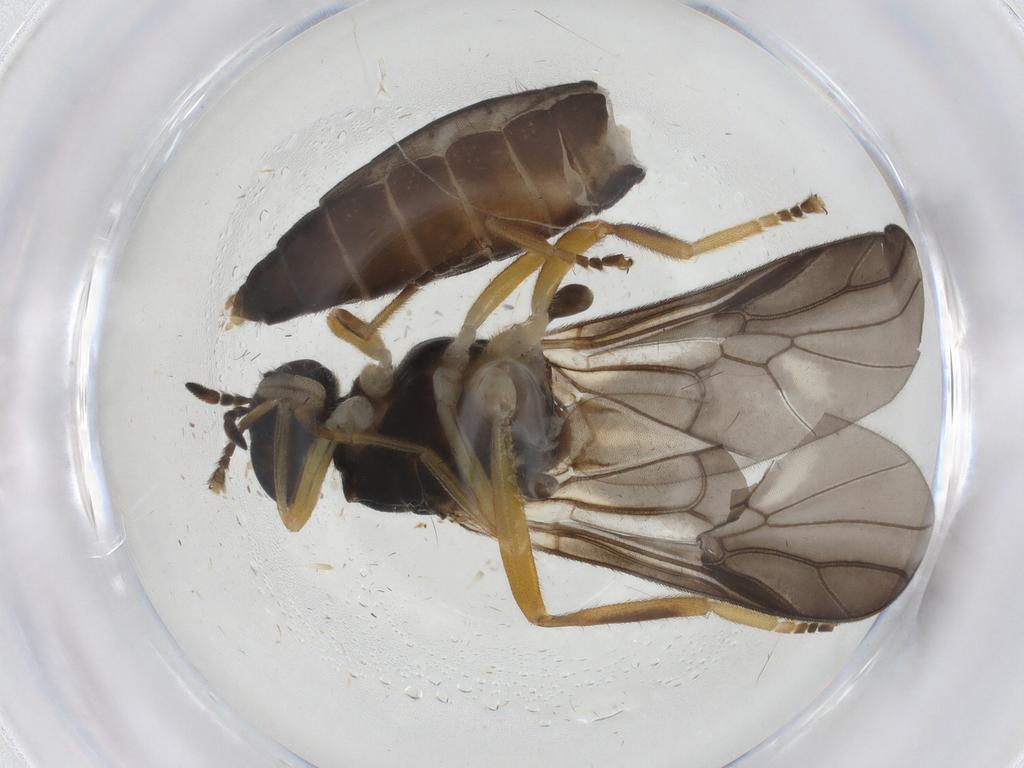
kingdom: Animalia
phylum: Arthropoda
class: Insecta
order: Diptera
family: Stratiomyidae
